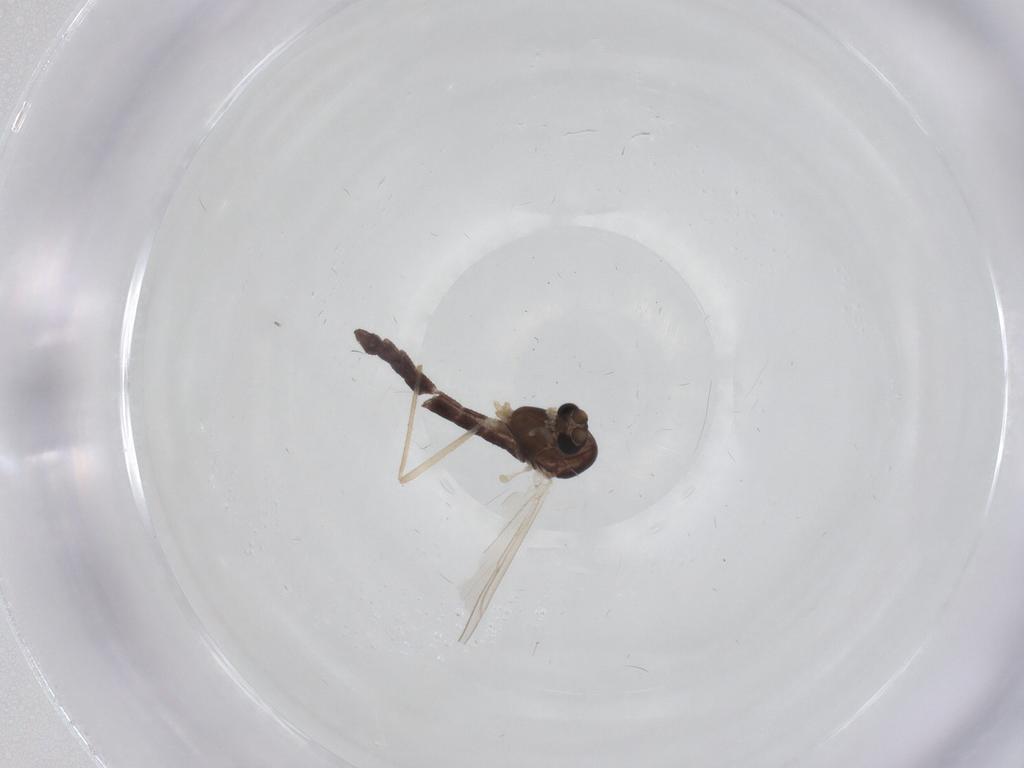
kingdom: Animalia
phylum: Arthropoda
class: Insecta
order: Diptera
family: Chironomidae
